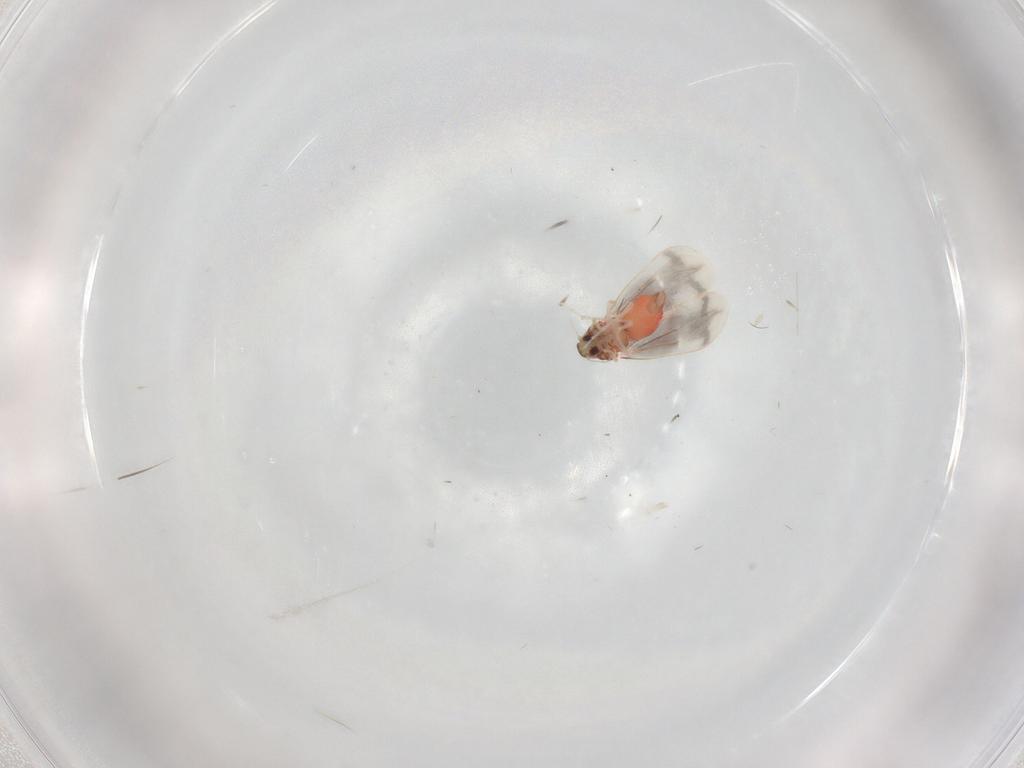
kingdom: Animalia
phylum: Arthropoda
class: Insecta
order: Hemiptera
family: Aleyrodidae
